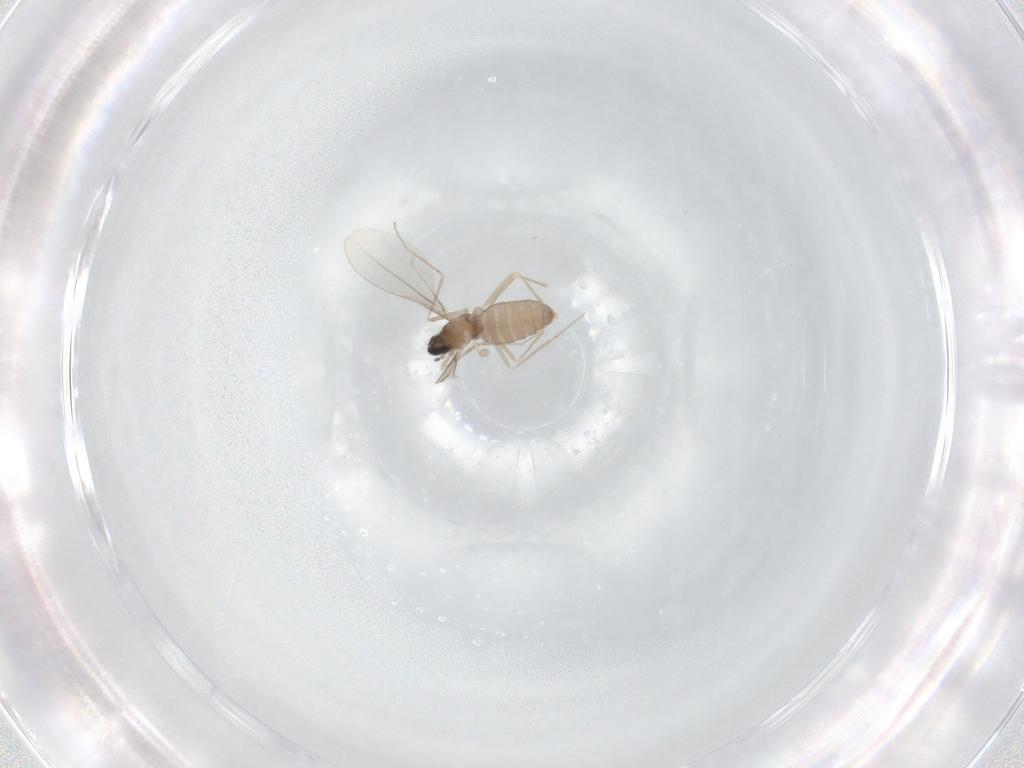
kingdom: Animalia
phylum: Arthropoda
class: Insecta
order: Diptera
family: Cecidomyiidae
